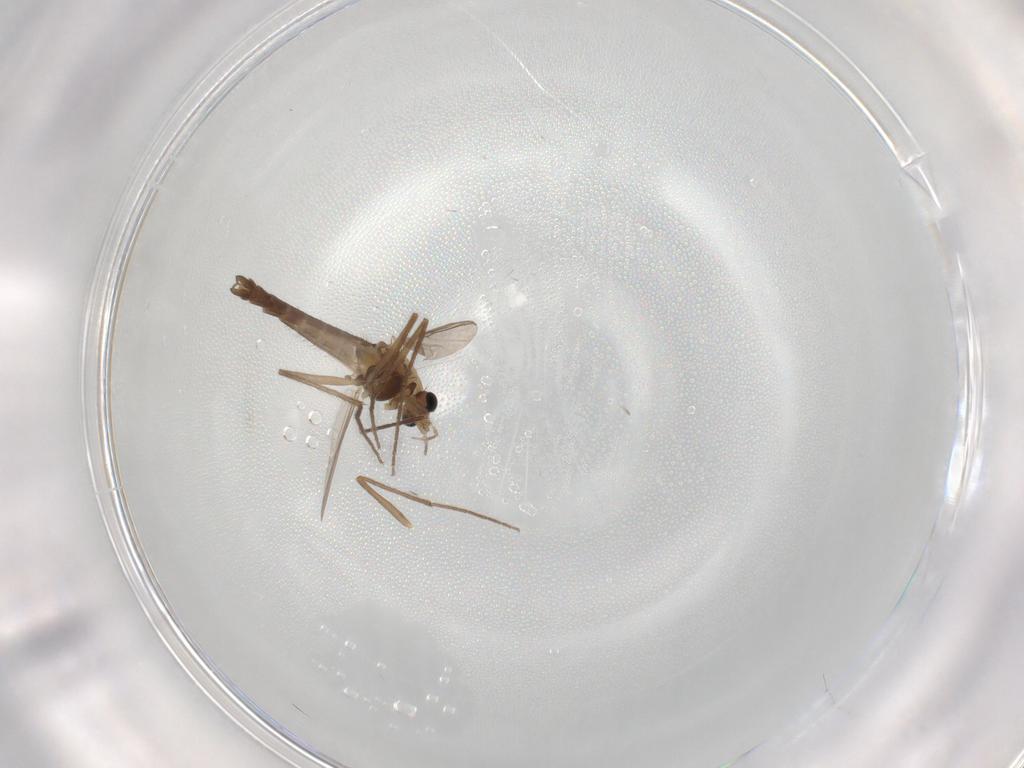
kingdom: Animalia
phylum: Arthropoda
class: Insecta
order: Diptera
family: Chironomidae
